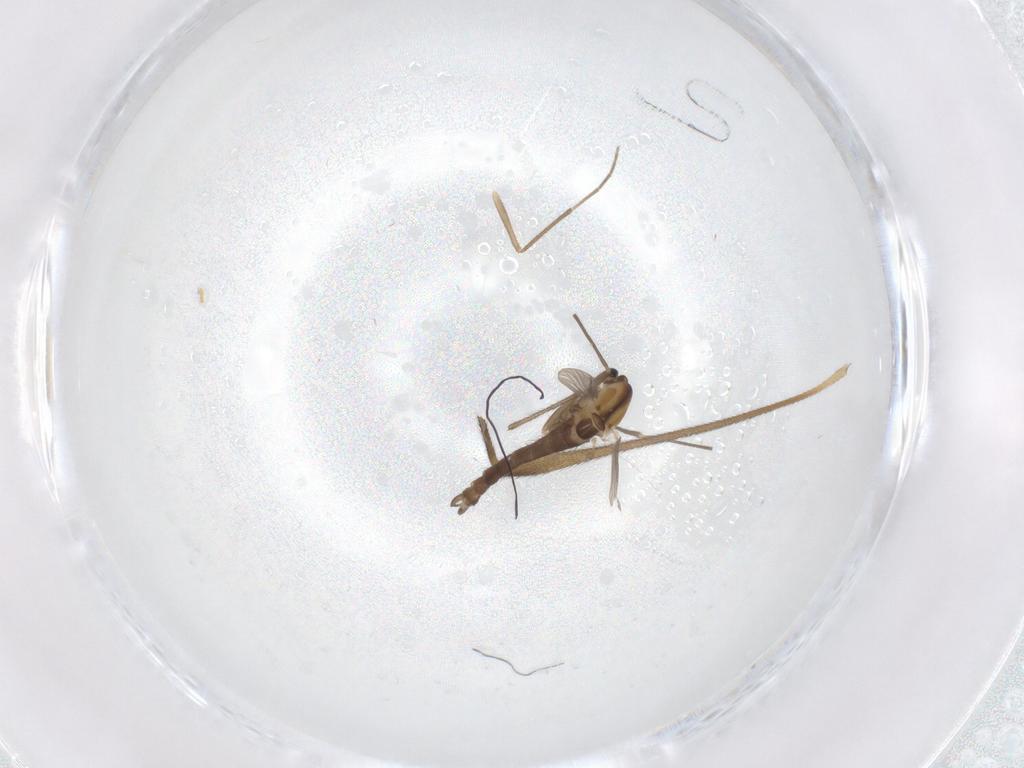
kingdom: Animalia
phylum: Arthropoda
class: Insecta
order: Diptera
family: Chironomidae
